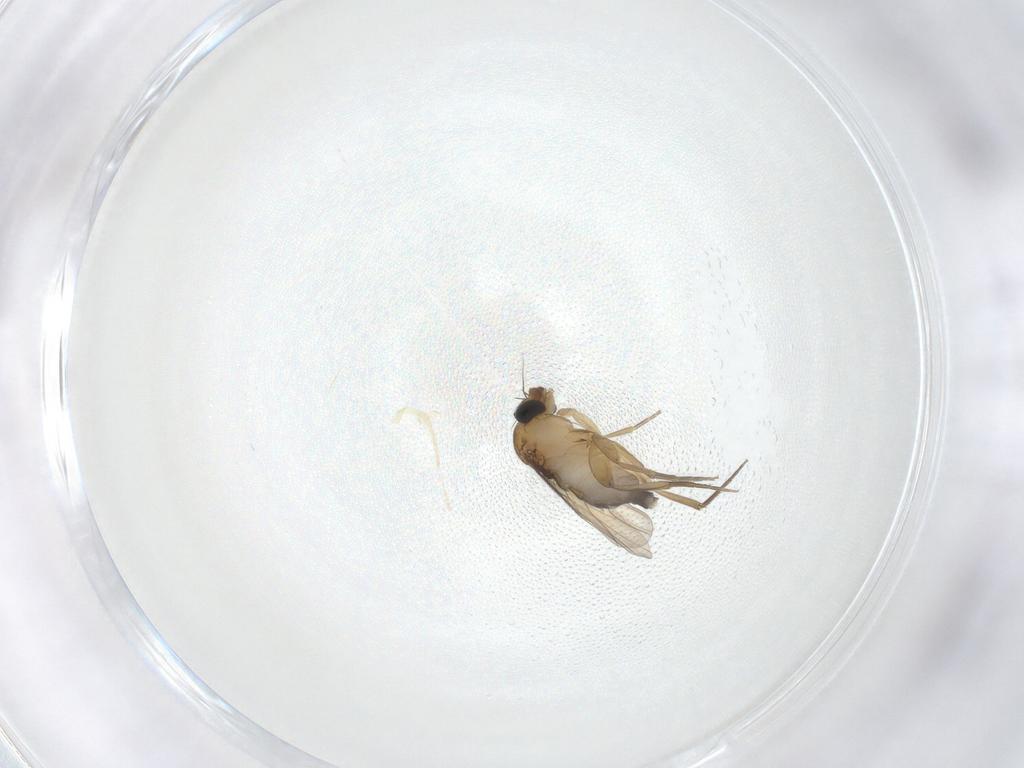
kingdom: Animalia
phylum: Arthropoda
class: Insecta
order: Diptera
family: Phoridae
